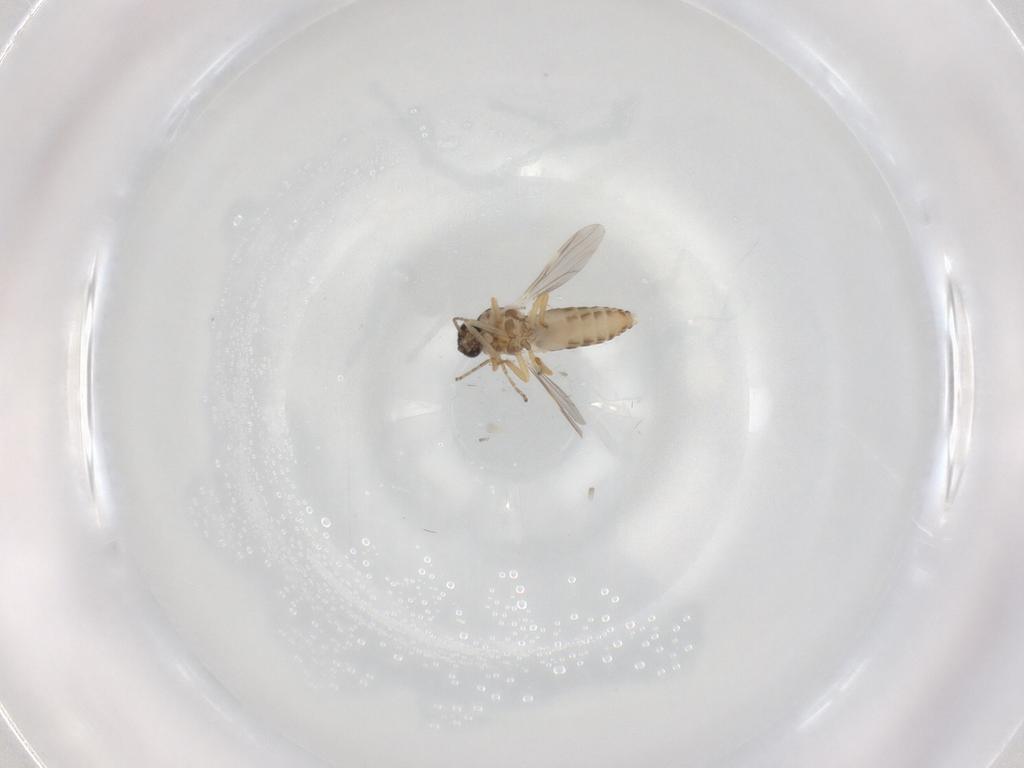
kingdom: Animalia
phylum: Arthropoda
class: Insecta
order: Diptera
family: Ceratopogonidae
